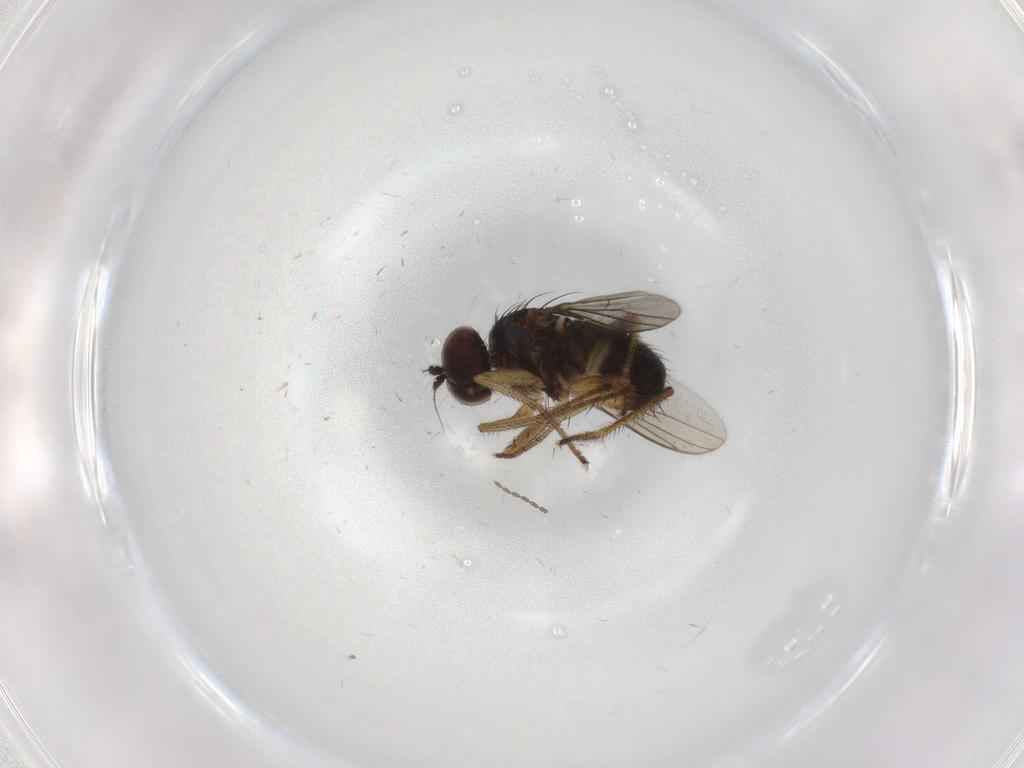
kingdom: Animalia
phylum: Arthropoda
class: Insecta
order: Diptera
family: Dolichopodidae
